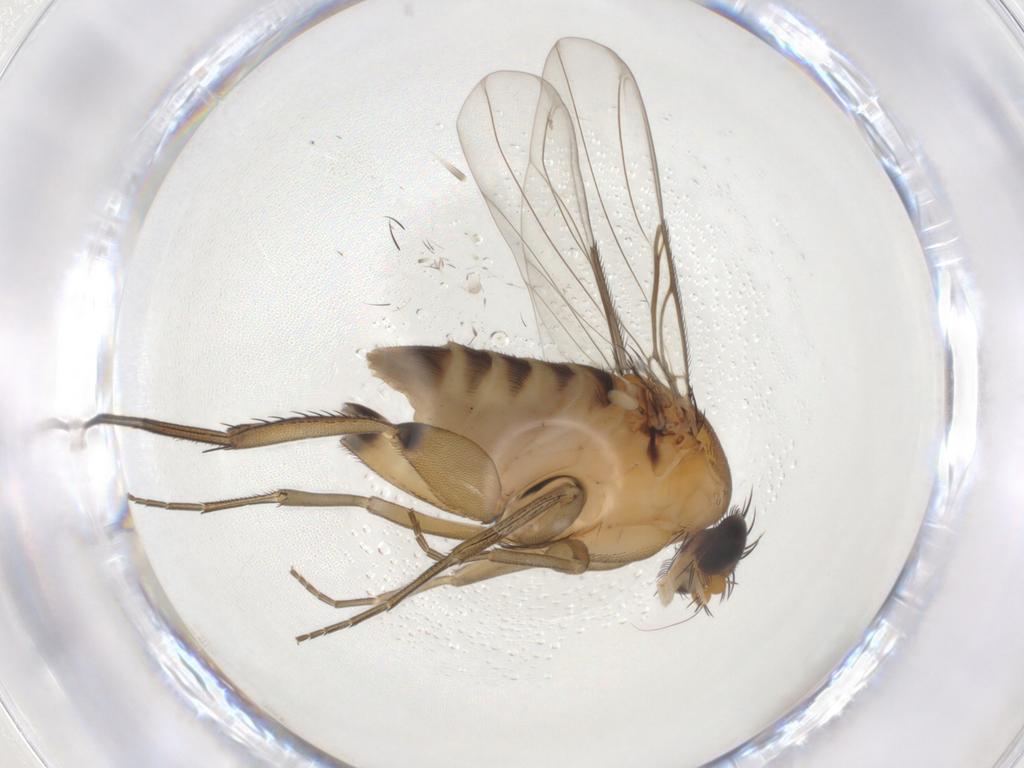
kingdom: Animalia
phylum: Arthropoda
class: Insecta
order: Diptera
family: Phoridae
